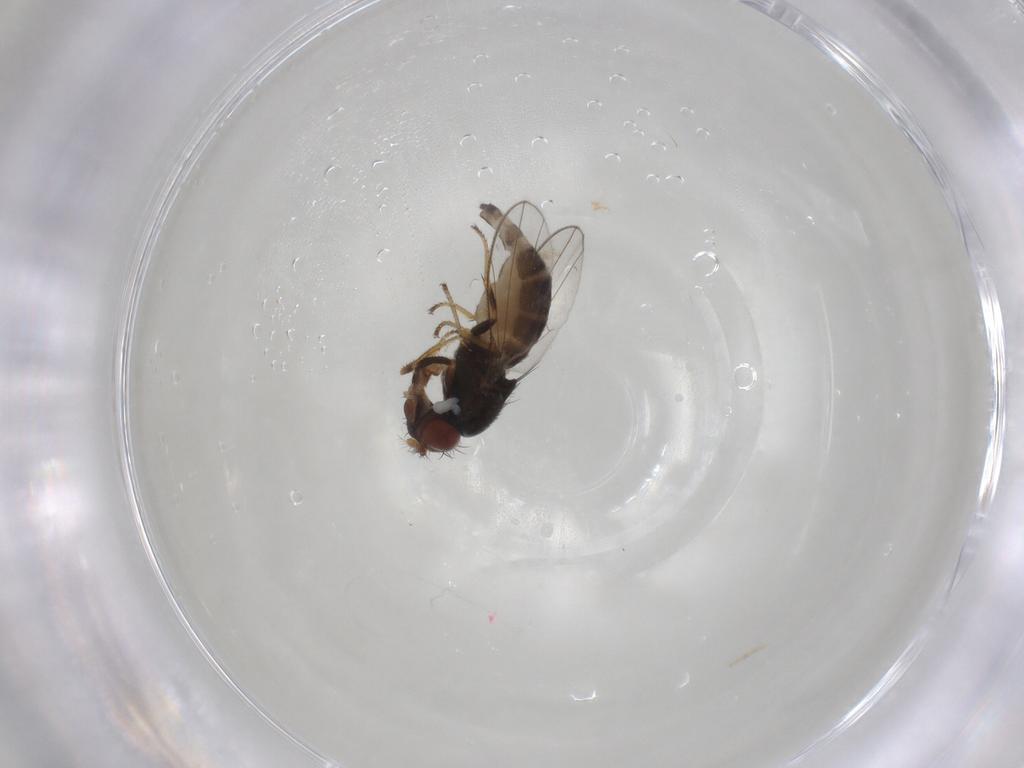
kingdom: Animalia
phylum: Arthropoda
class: Insecta
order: Diptera
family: Ephydridae
